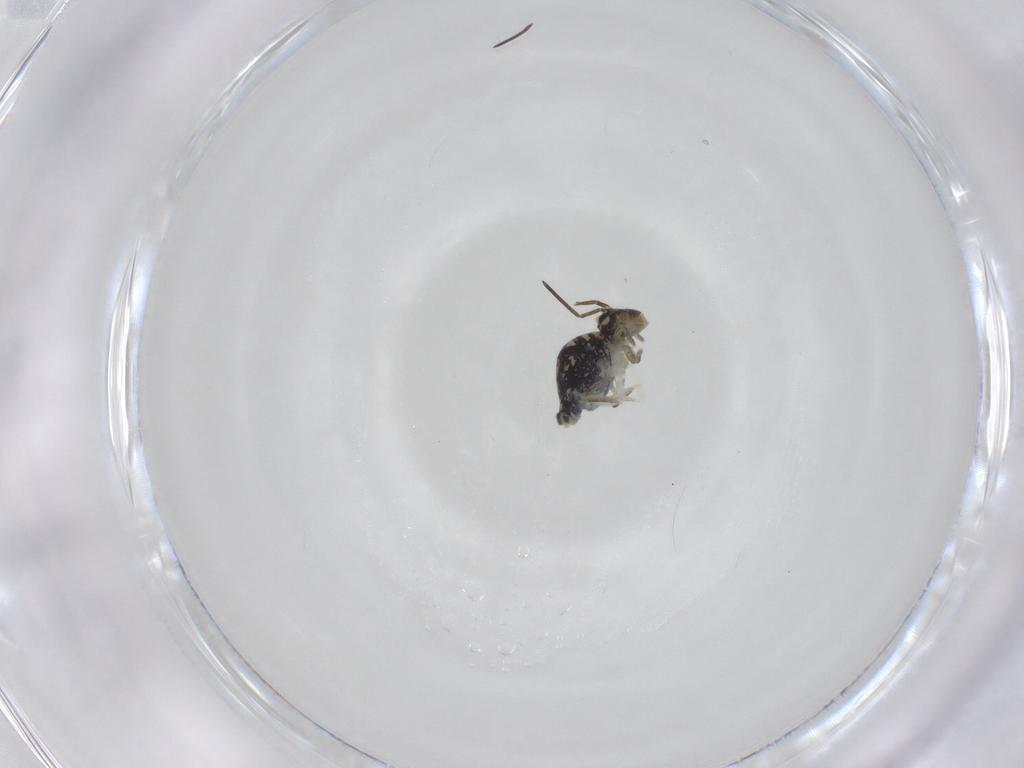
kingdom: Animalia
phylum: Arthropoda
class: Collembola
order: Symphypleona
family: Katiannidae
